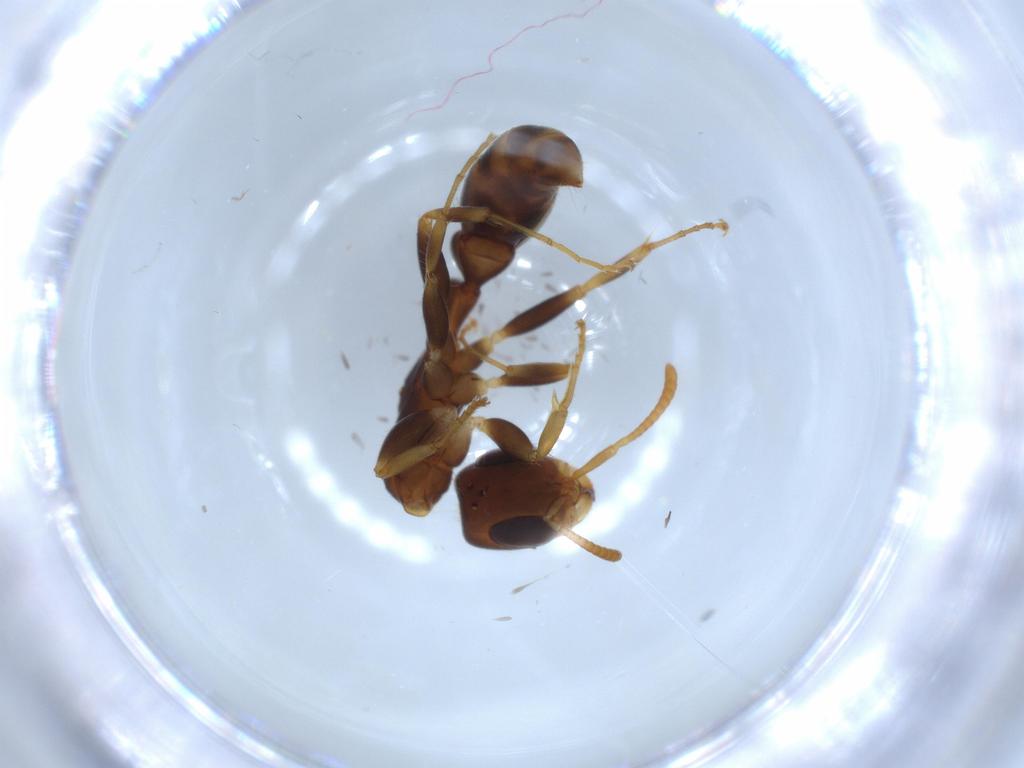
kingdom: Animalia
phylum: Arthropoda
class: Insecta
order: Hymenoptera
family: Formicidae
